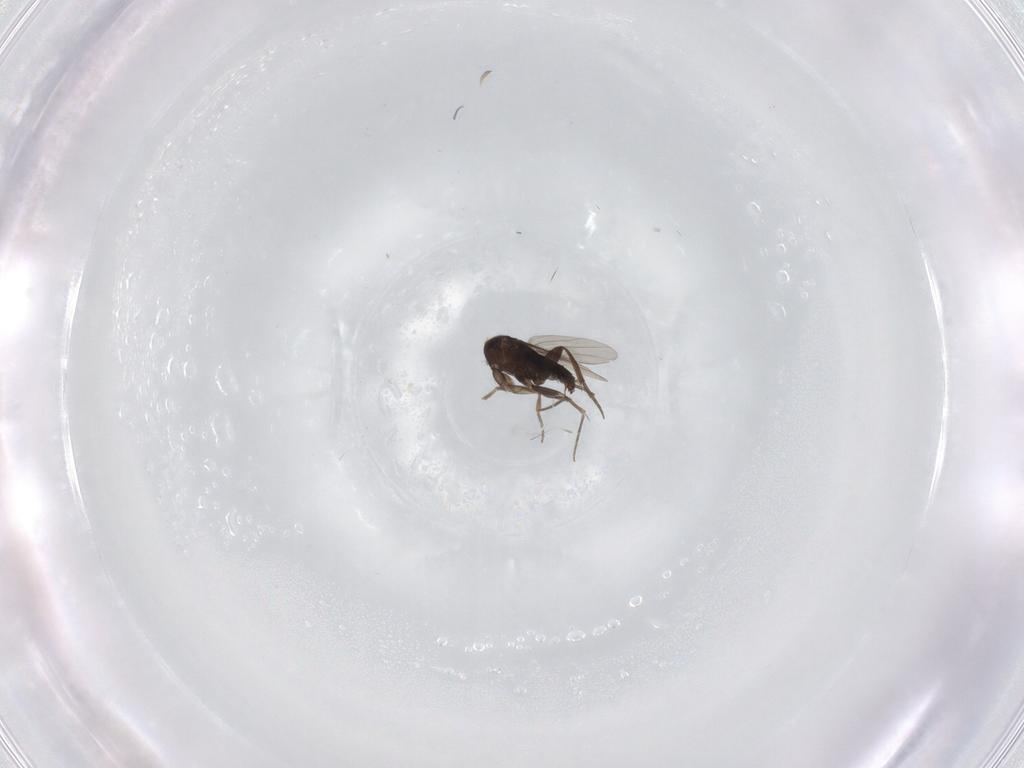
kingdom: Animalia
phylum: Arthropoda
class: Insecta
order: Diptera
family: Phoridae
